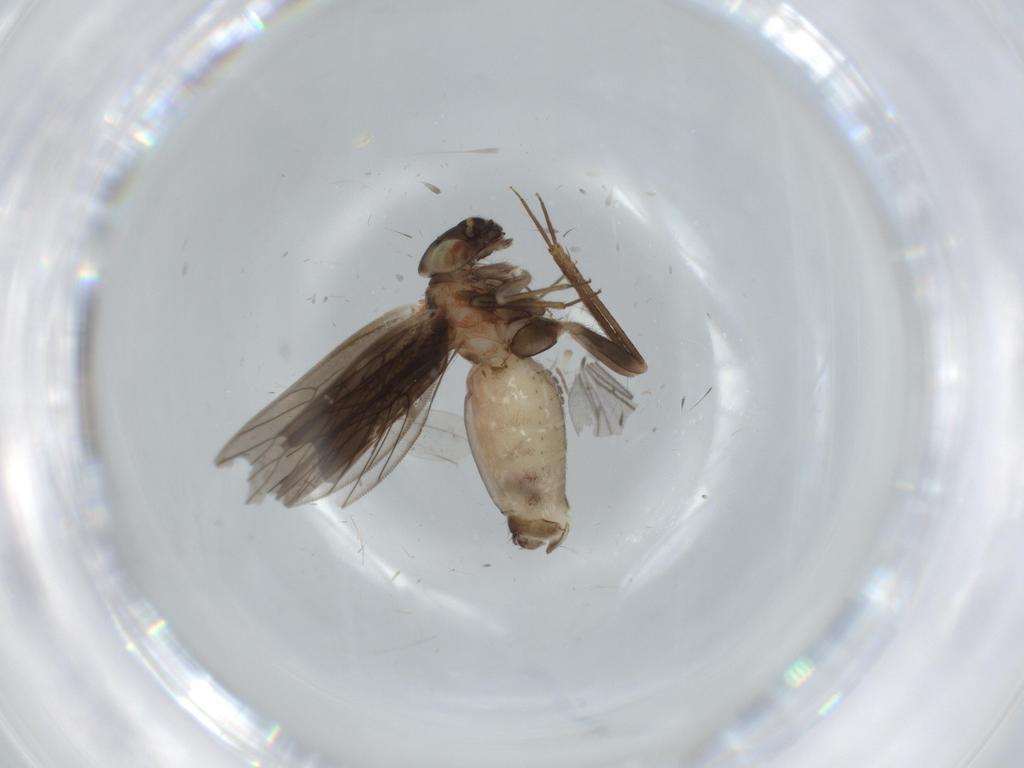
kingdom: Animalia
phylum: Arthropoda
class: Insecta
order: Psocodea
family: Lepidopsocidae
